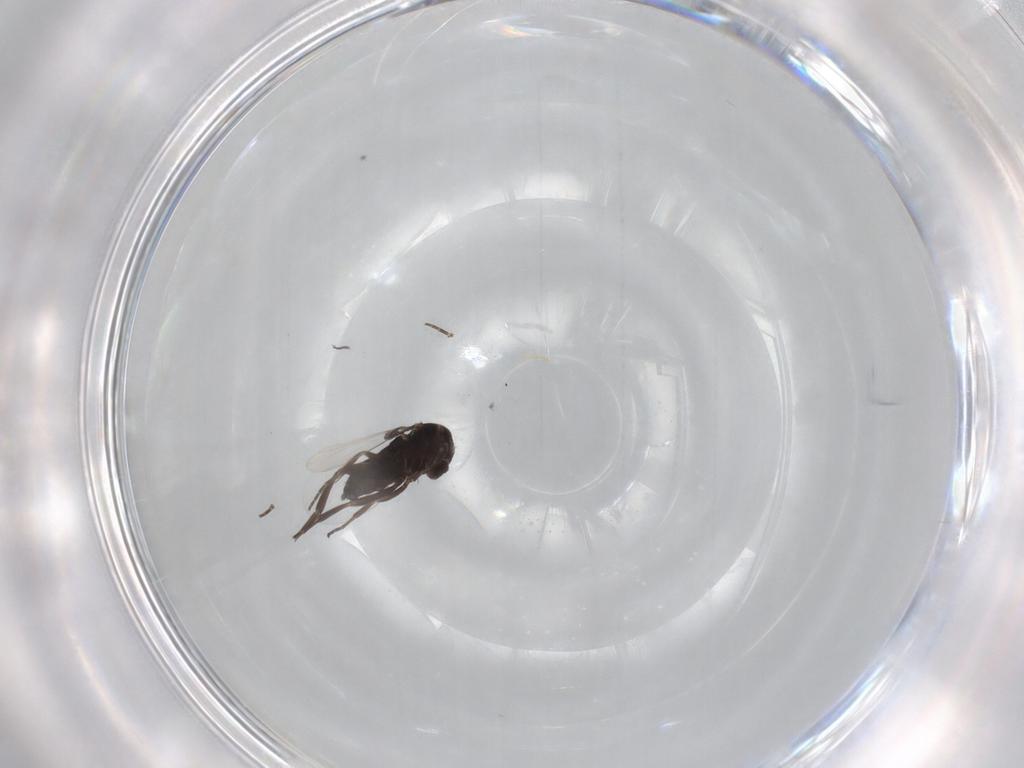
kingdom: Animalia
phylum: Arthropoda
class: Insecta
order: Diptera
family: Phoridae
